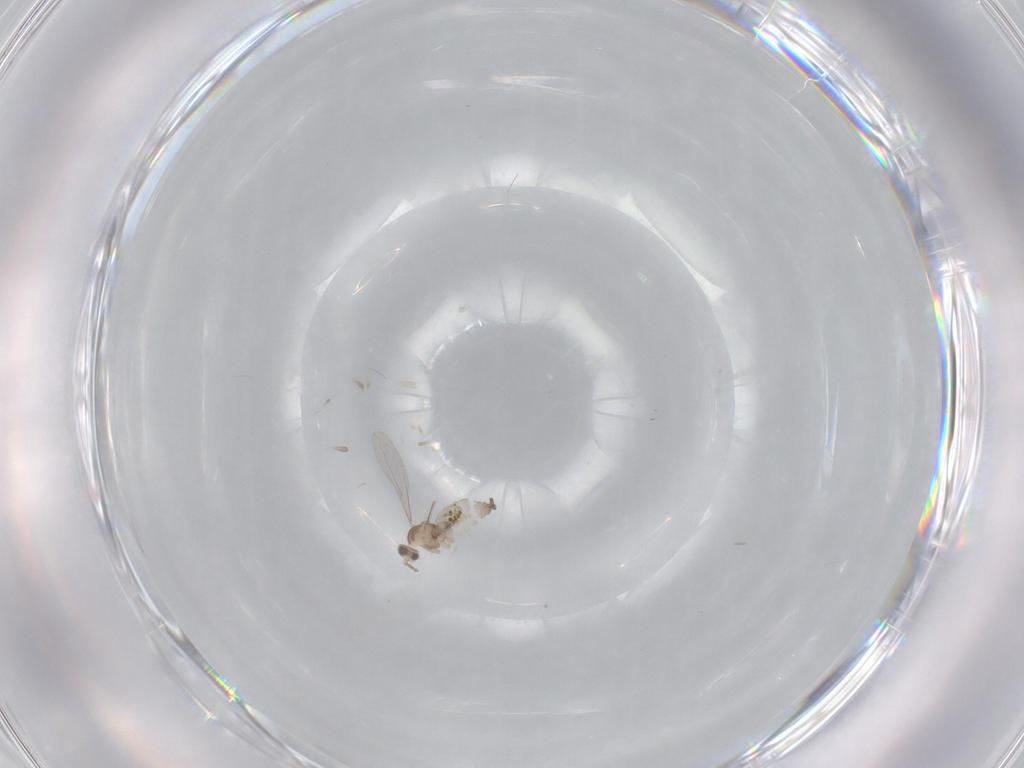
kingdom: Animalia
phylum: Arthropoda
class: Insecta
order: Diptera
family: Cecidomyiidae
